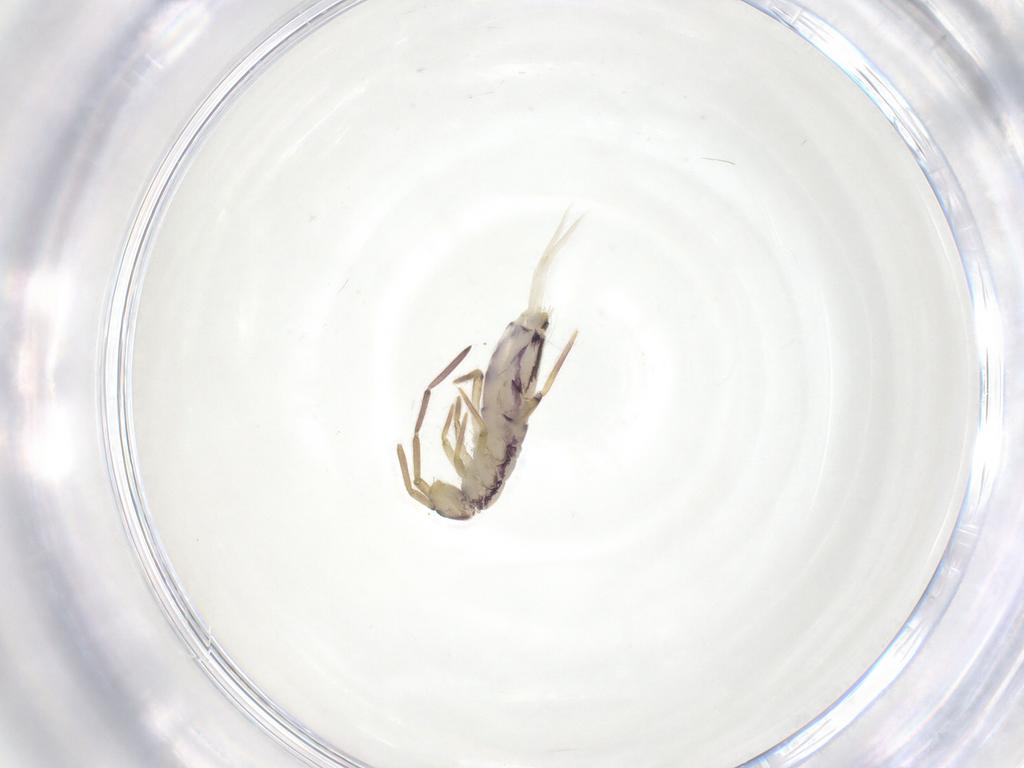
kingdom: Animalia
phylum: Arthropoda
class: Collembola
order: Entomobryomorpha
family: Entomobryidae
